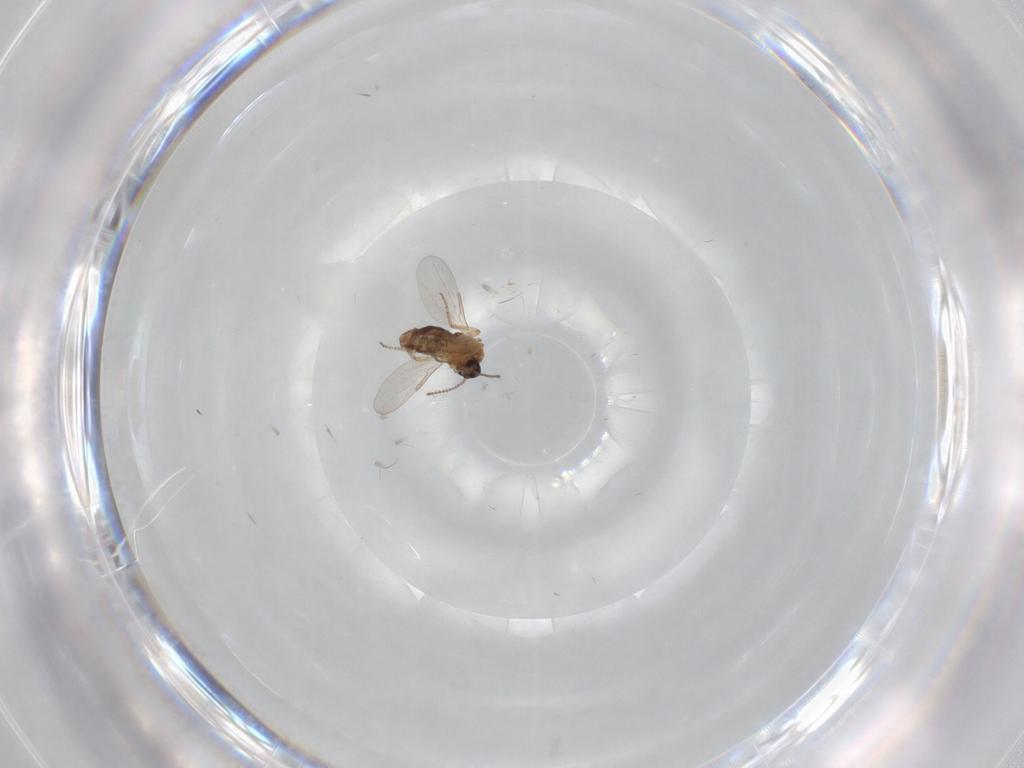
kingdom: Animalia
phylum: Arthropoda
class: Insecta
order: Diptera
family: Ceratopogonidae
